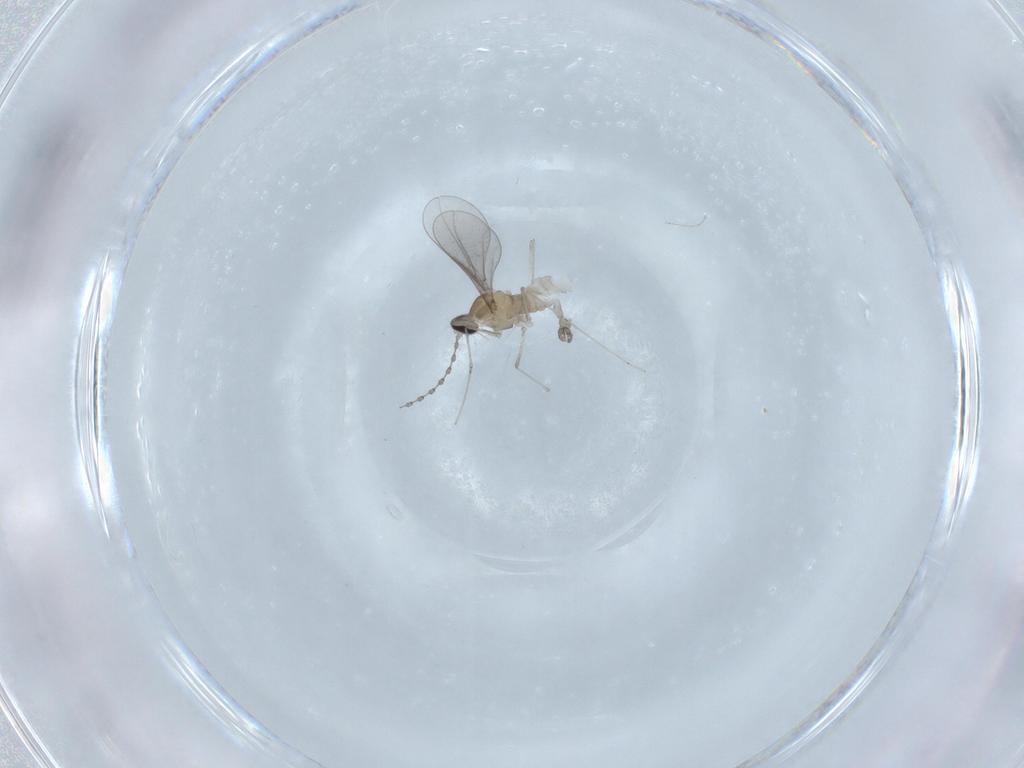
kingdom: Animalia
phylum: Arthropoda
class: Insecta
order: Diptera
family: Cecidomyiidae
